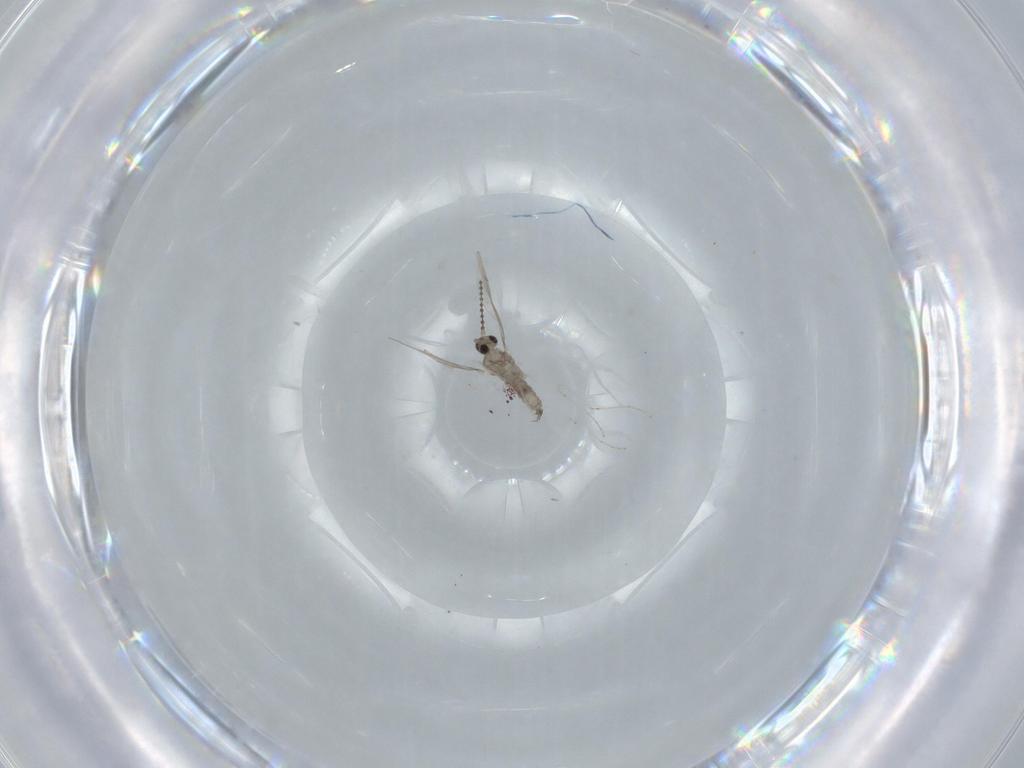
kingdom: Animalia
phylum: Arthropoda
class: Insecta
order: Diptera
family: Cecidomyiidae
